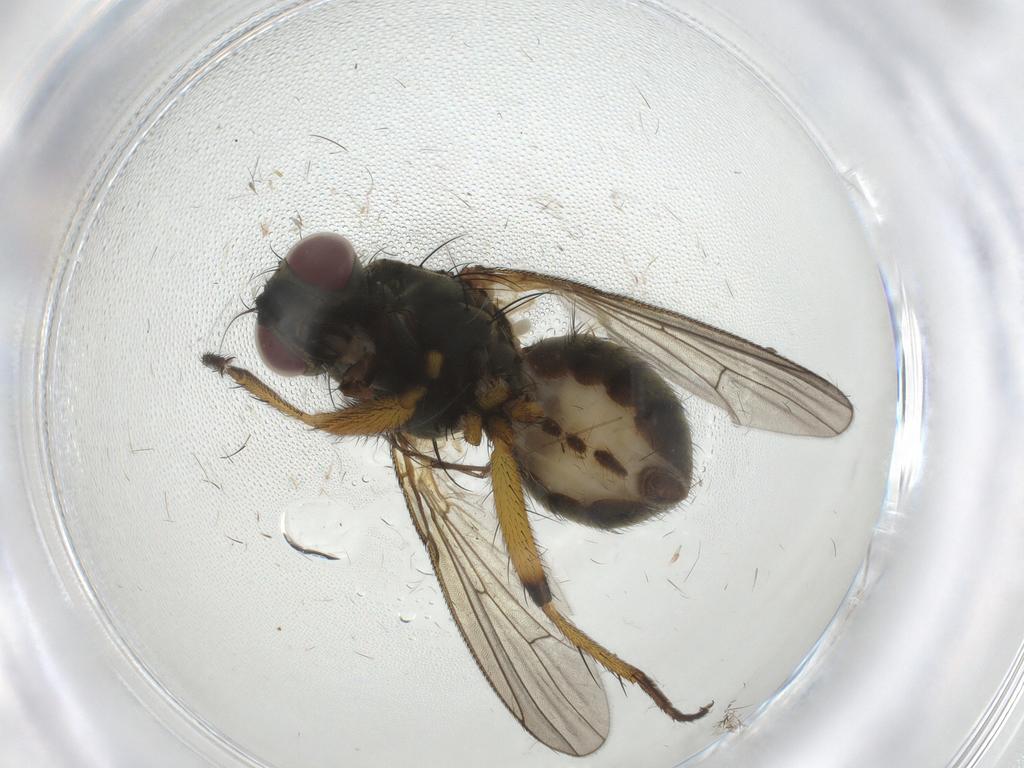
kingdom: Animalia
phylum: Arthropoda
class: Insecta
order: Diptera
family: Muscidae
